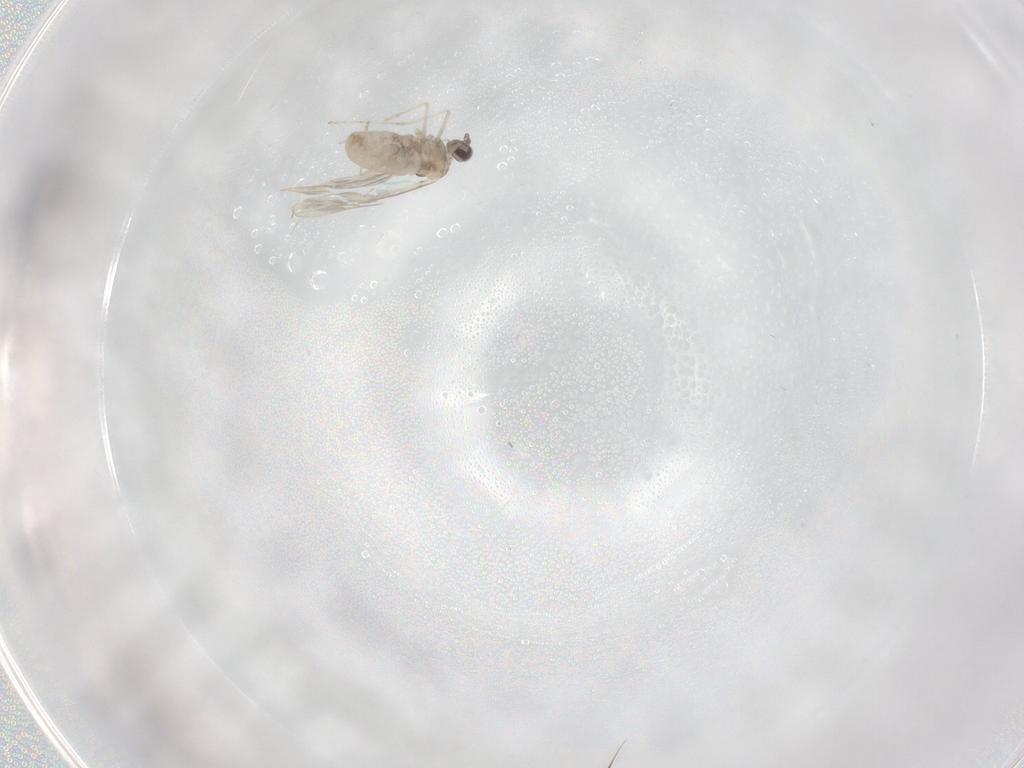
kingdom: Animalia
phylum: Arthropoda
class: Insecta
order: Diptera
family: Cecidomyiidae
